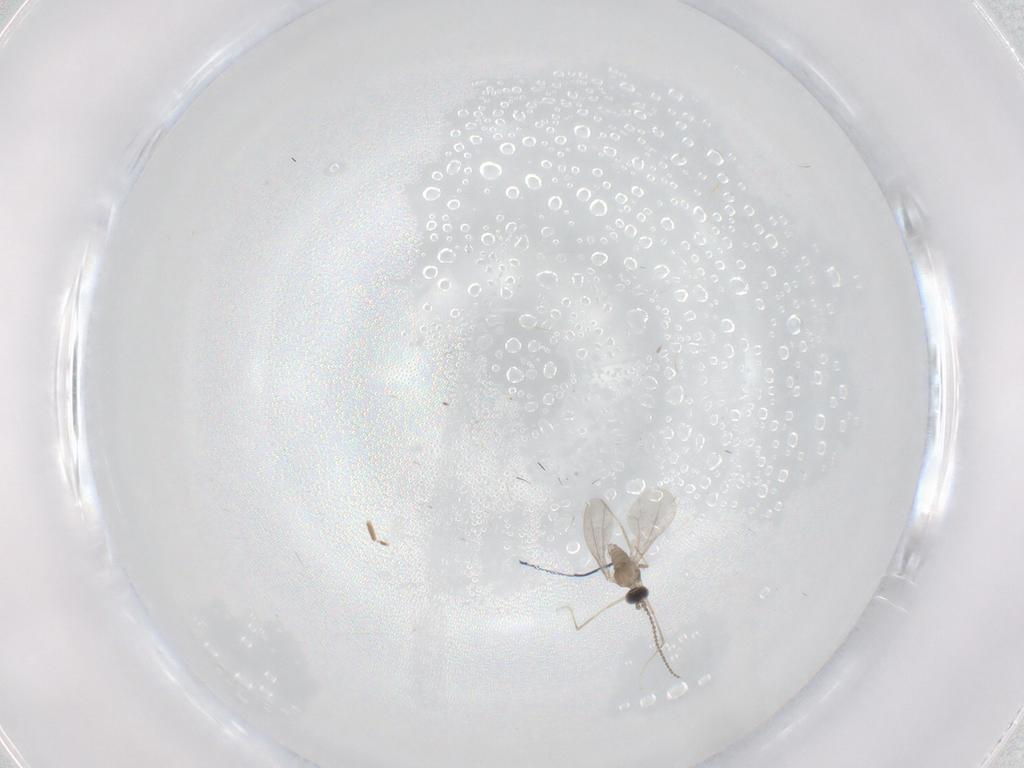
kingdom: Animalia
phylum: Arthropoda
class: Insecta
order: Diptera
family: Cecidomyiidae
